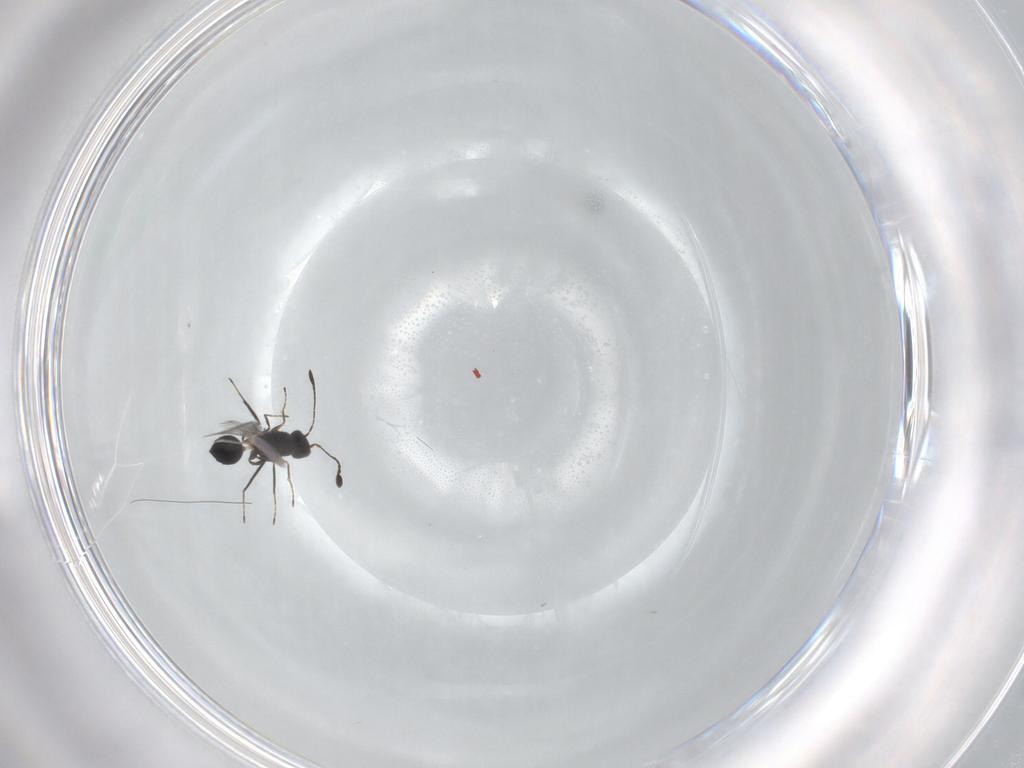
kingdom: Animalia
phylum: Arthropoda
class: Insecta
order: Hymenoptera
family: Mymaridae
